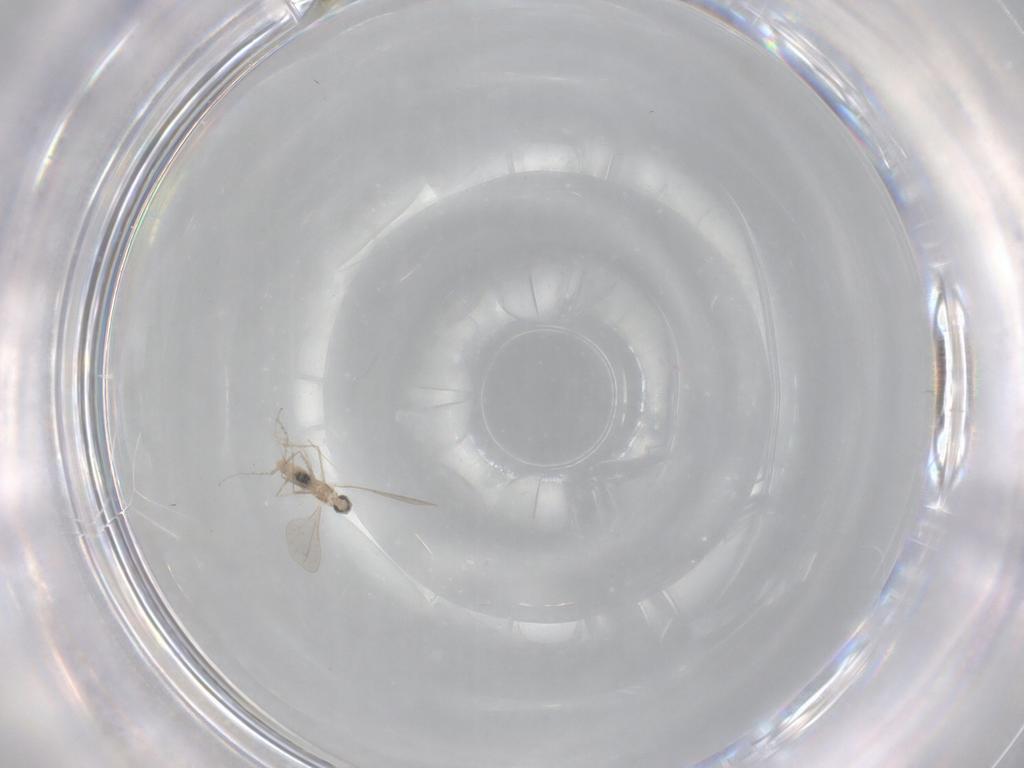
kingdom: Animalia
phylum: Arthropoda
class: Insecta
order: Diptera
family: Cecidomyiidae
